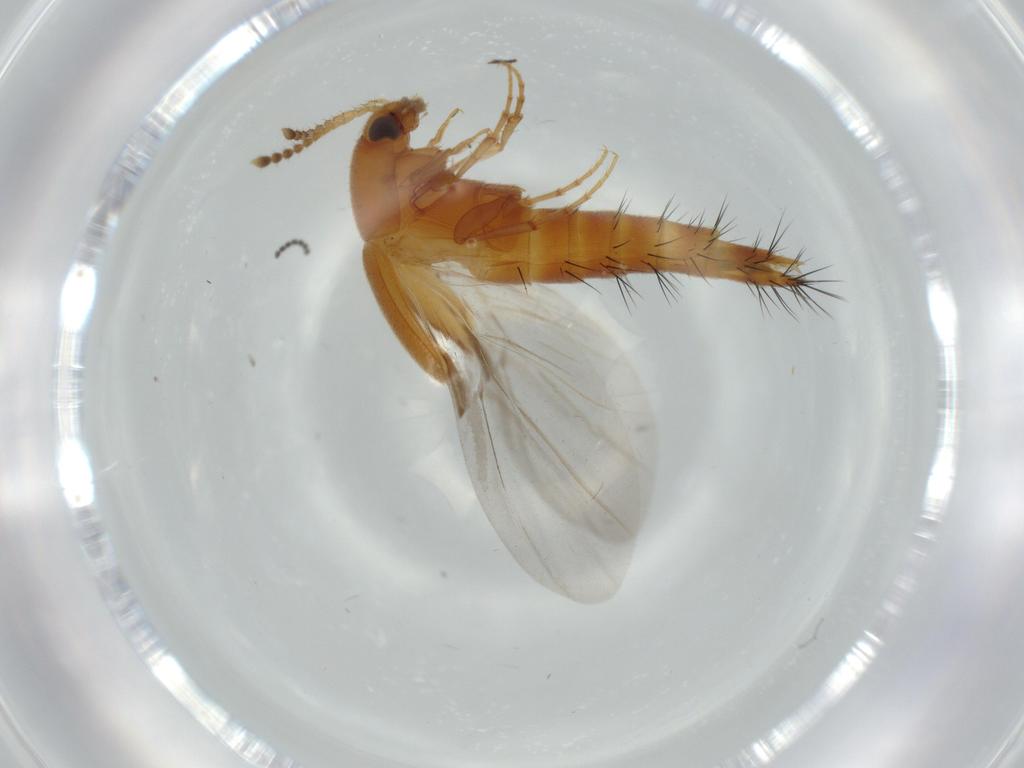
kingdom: Animalia
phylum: Arthropoda
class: Insecta
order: Coleoptera
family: Staphylinidae
